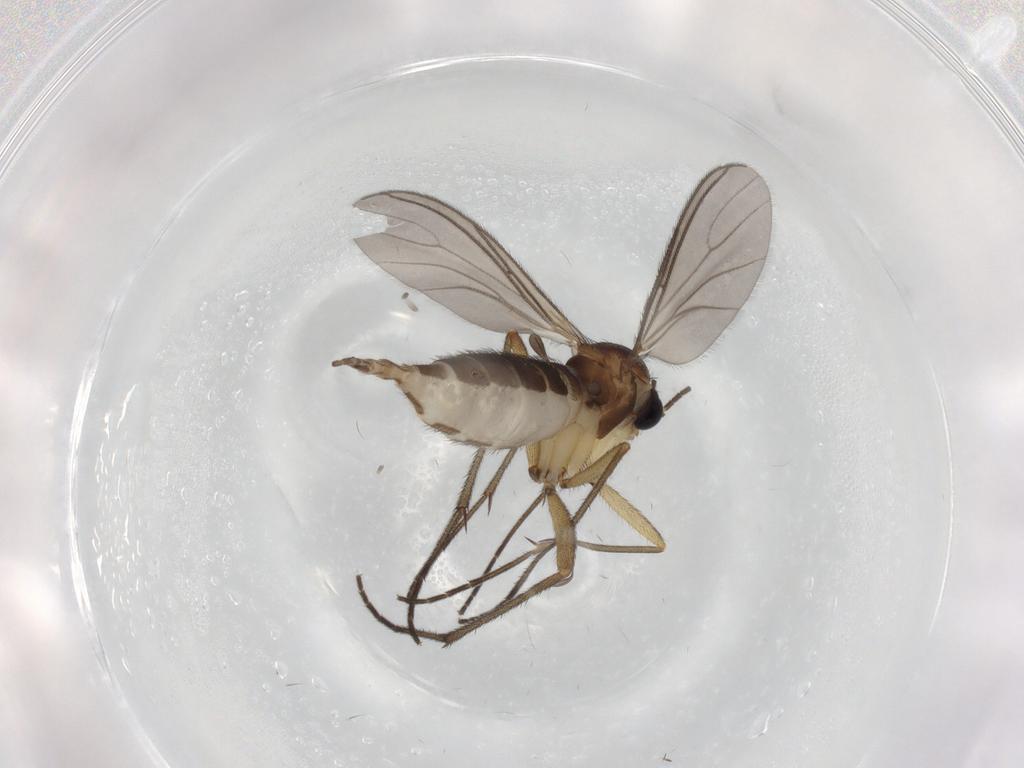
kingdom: Animalia
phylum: Arthropoda
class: Insecta
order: Diptera
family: Sciaridae
